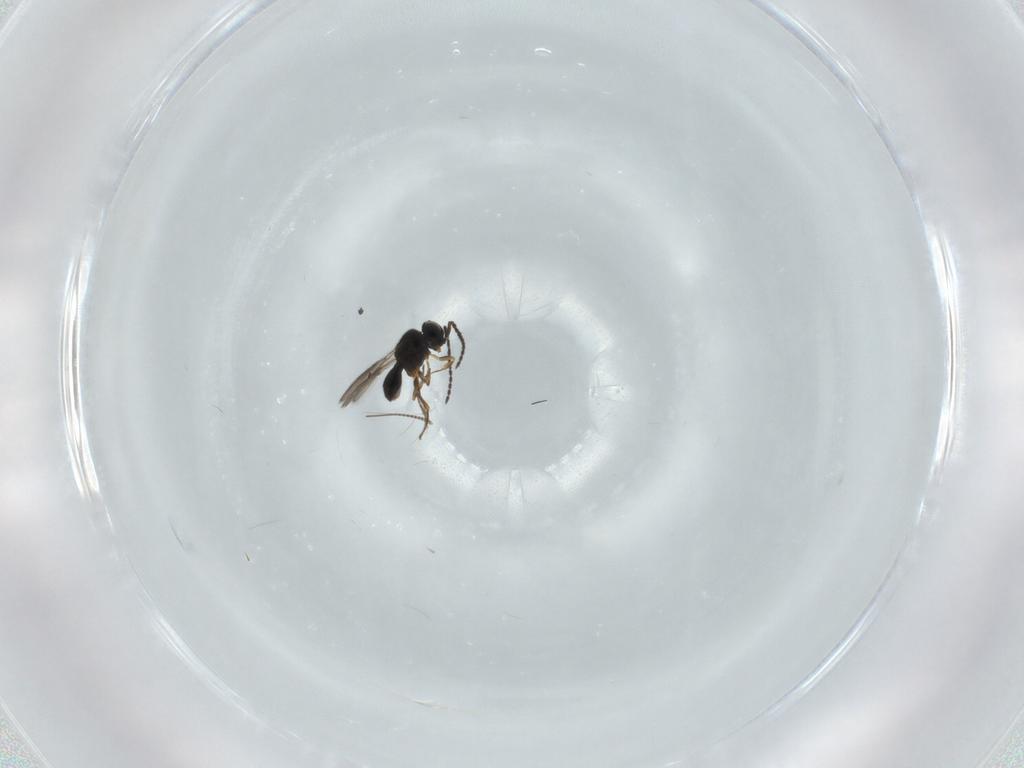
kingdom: Animalia
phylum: Arthropoda
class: Insecta
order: Hymenoptera
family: Scelionidae
